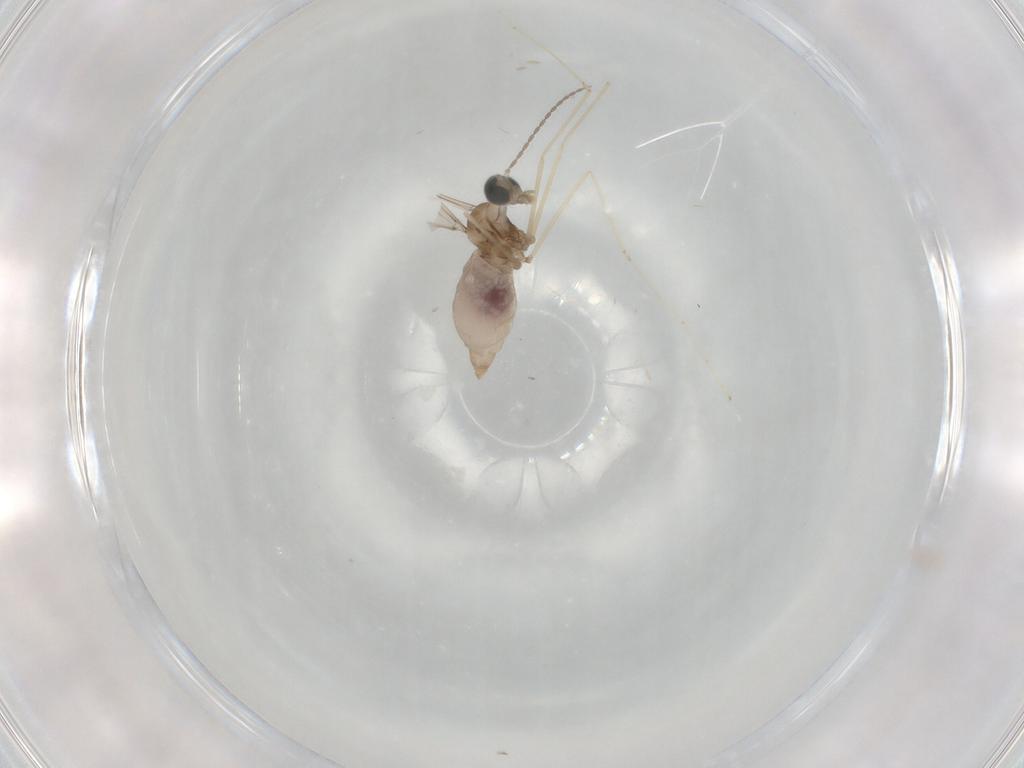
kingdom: Animalia
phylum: Arthropoda
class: Insecta
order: Diptera
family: Cecidomyiidae
